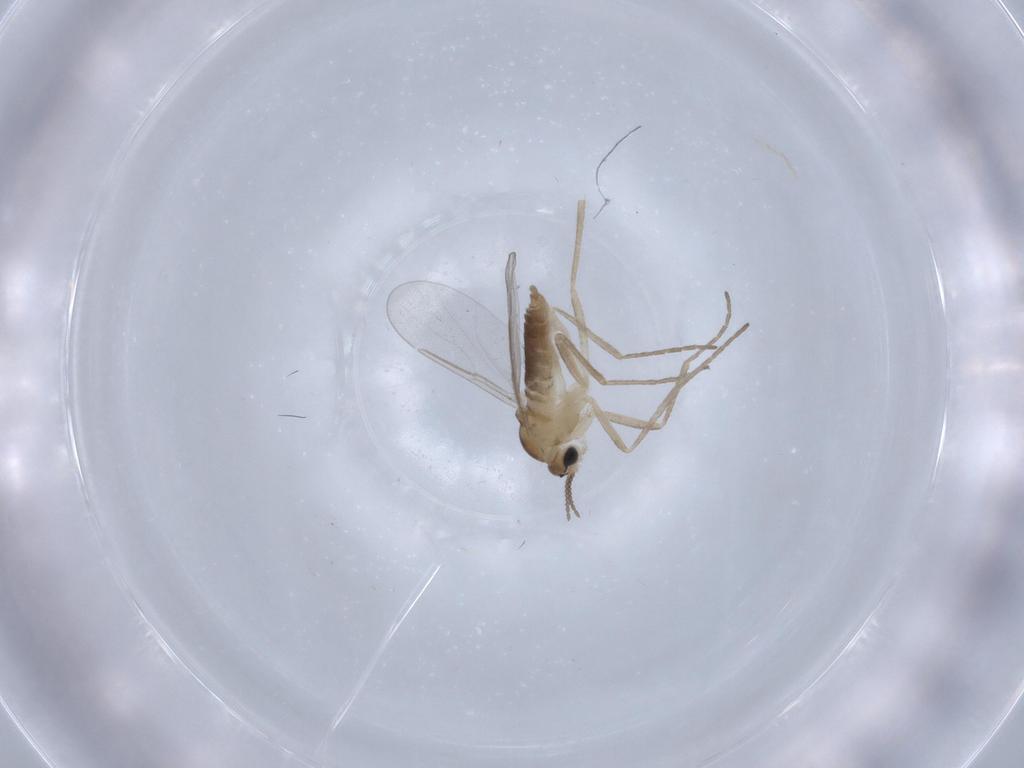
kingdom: Animalia
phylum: Arthropoda
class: Insecta
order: Diptera
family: Cecidomyiidae
